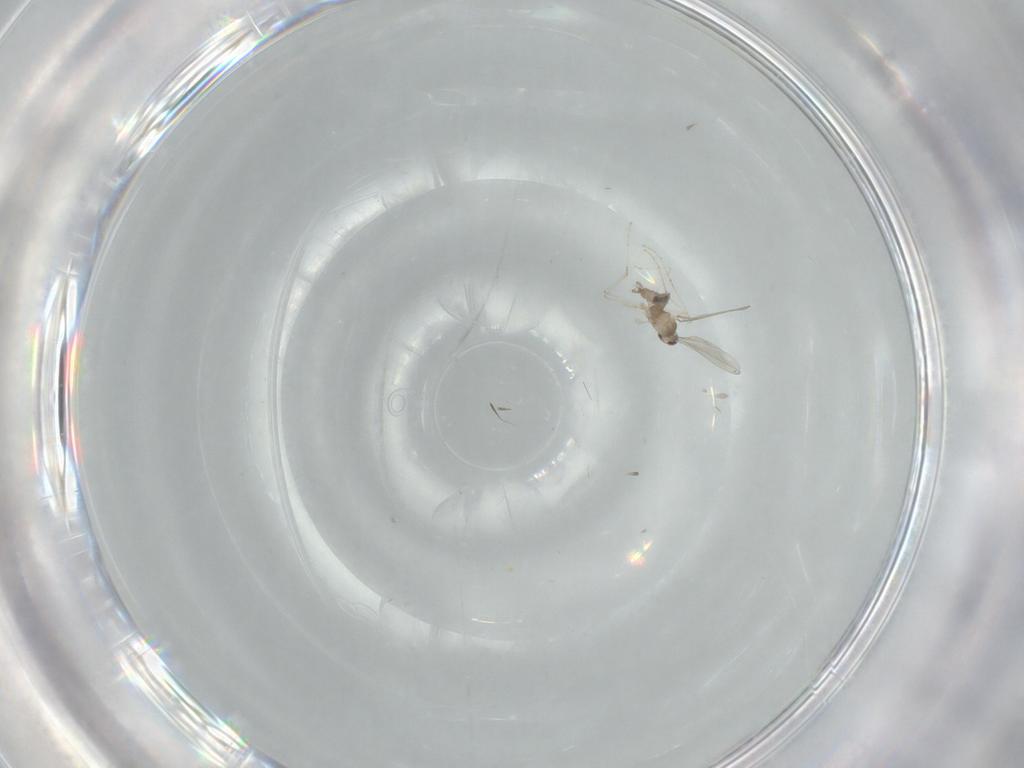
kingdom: Animalia
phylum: Arthropoda
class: Insecta
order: Diptera
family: Cecidomyiidae
